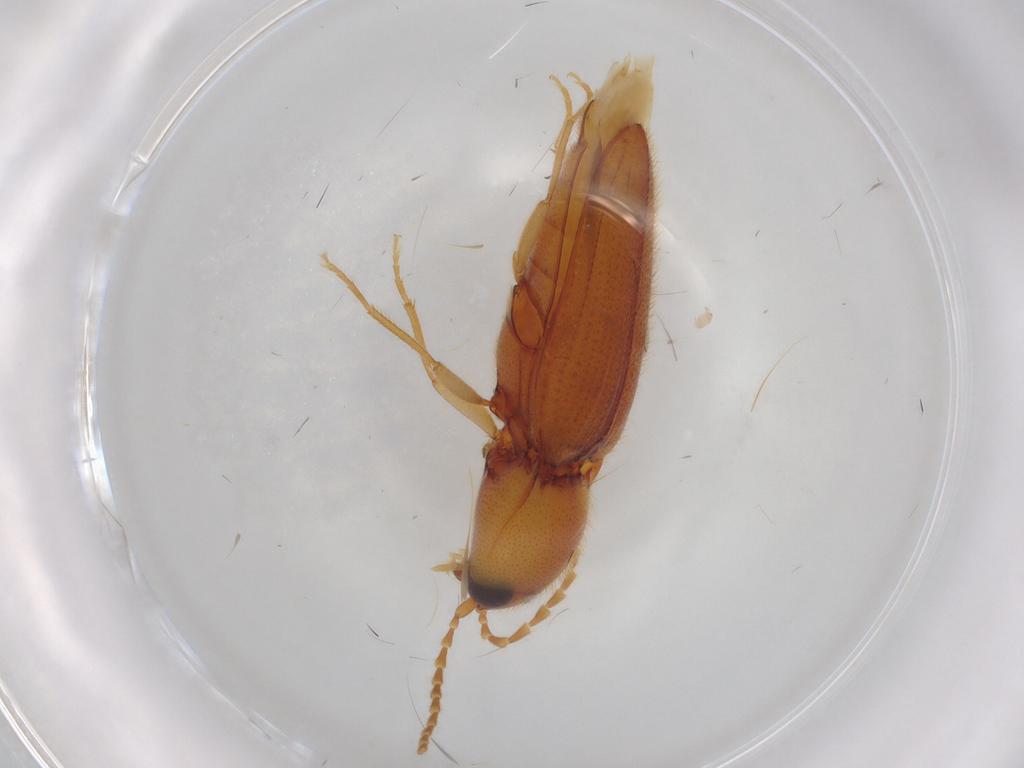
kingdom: Animalia
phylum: Arthropoda
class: Insecta
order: Coleoptera
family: Elateridae
